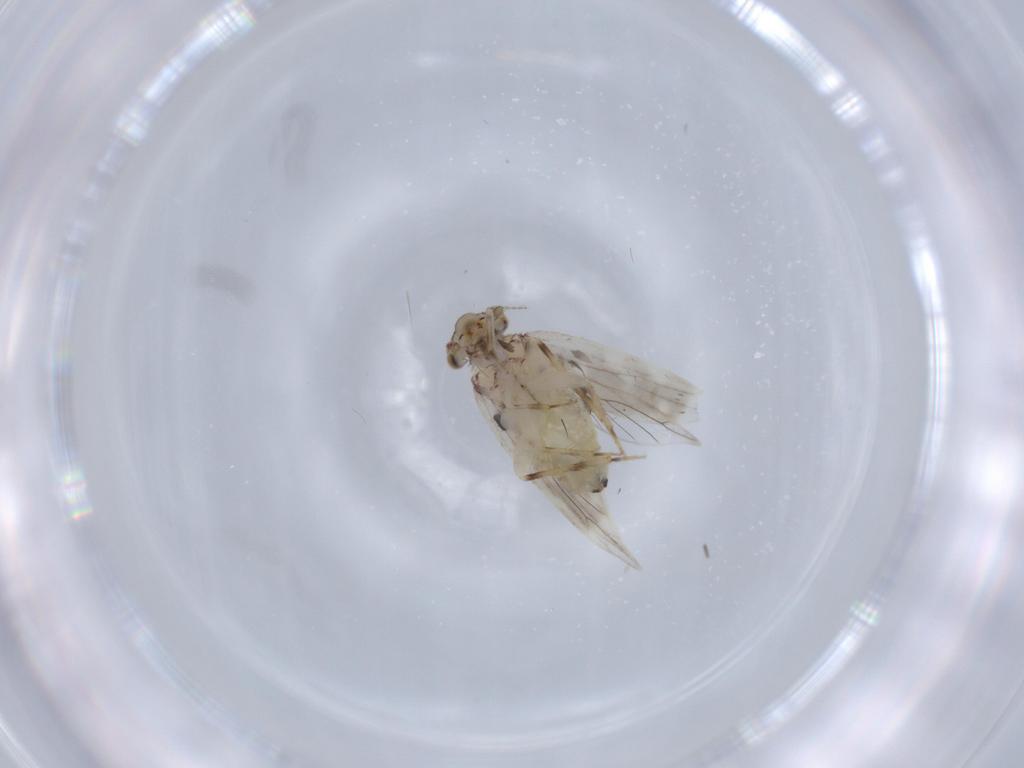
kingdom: Animalia
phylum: Arthropoda
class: Insecta
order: Psocodea
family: Lepidopsocidae
